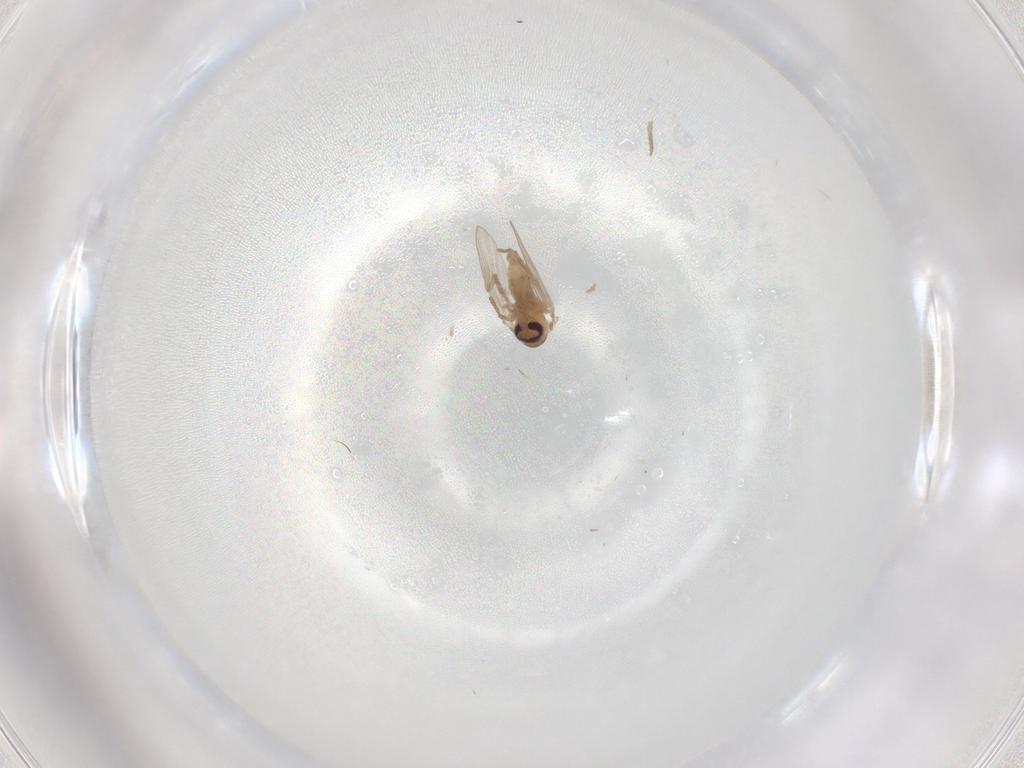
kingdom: Animalia
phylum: Arthropoda
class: Insecta
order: Diptera
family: Psychodidae
